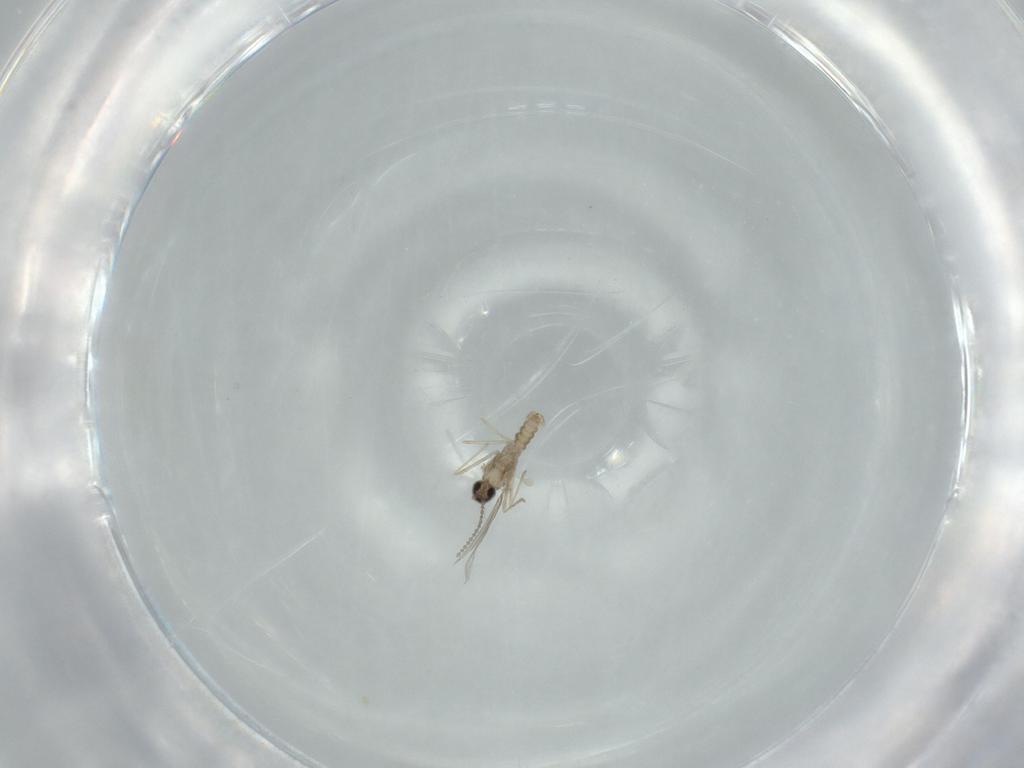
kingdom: Animalia
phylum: Arthropoda
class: Insecta
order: Diptera
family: Cecidomyiidae
